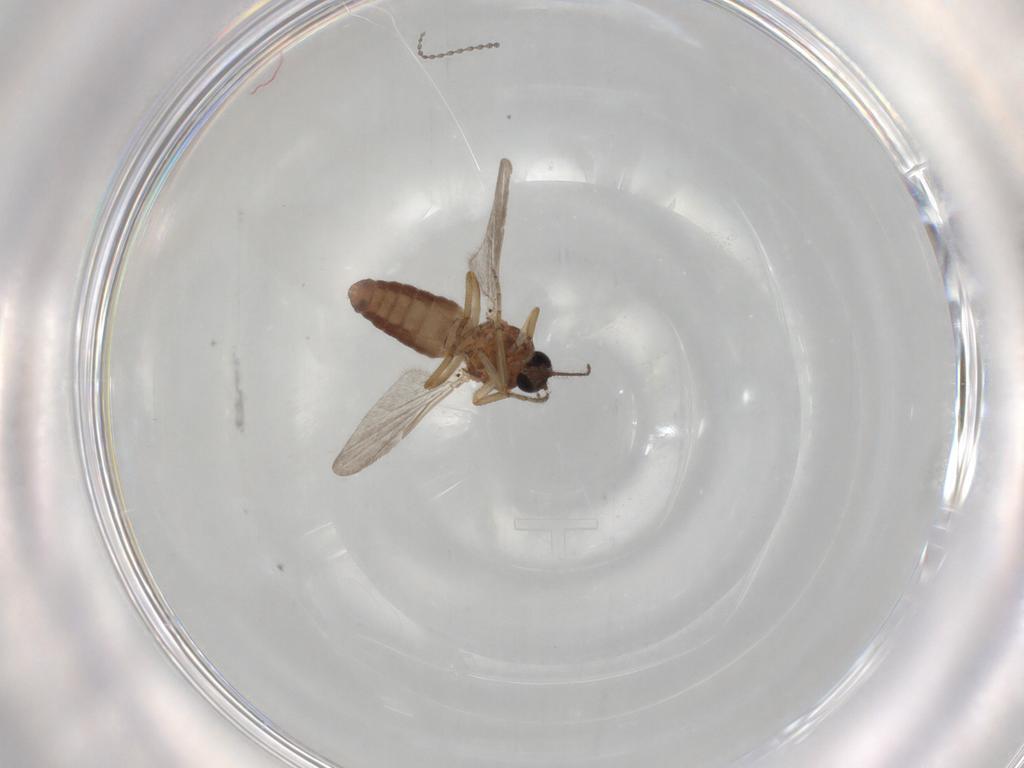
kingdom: Animalia
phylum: Arthropoda
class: Insecta
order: Diptera
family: Ceratopogonidae
